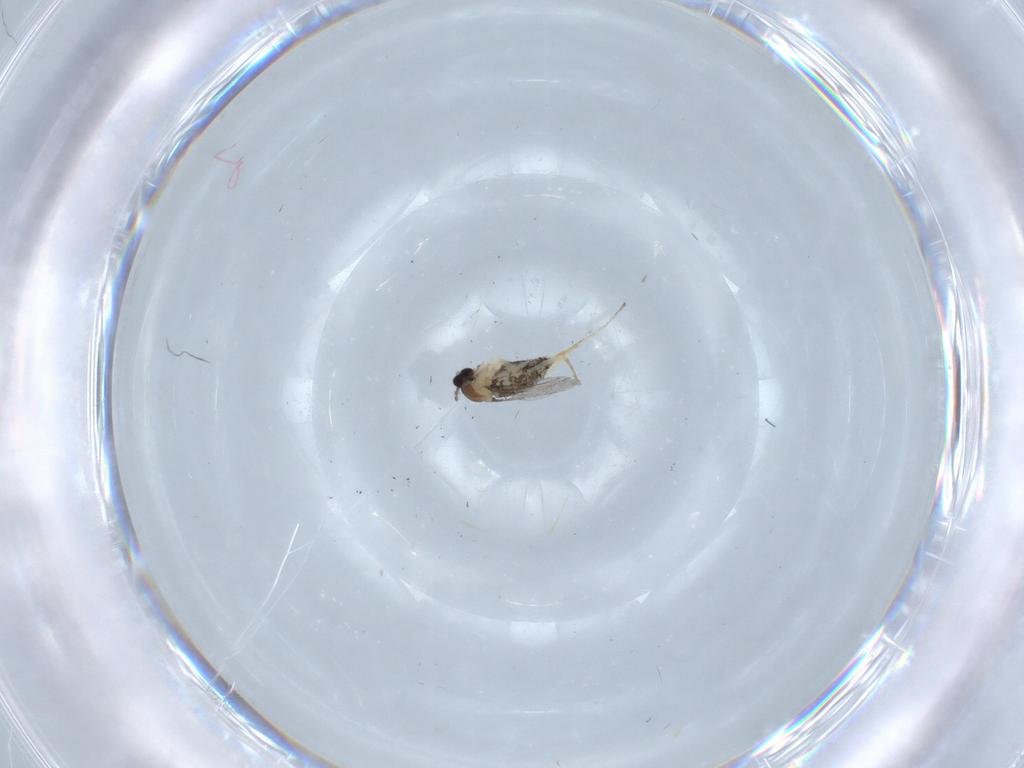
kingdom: Animalia
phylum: Arthropoda
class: Insecta
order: Diptera
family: Cecidomyiidae
